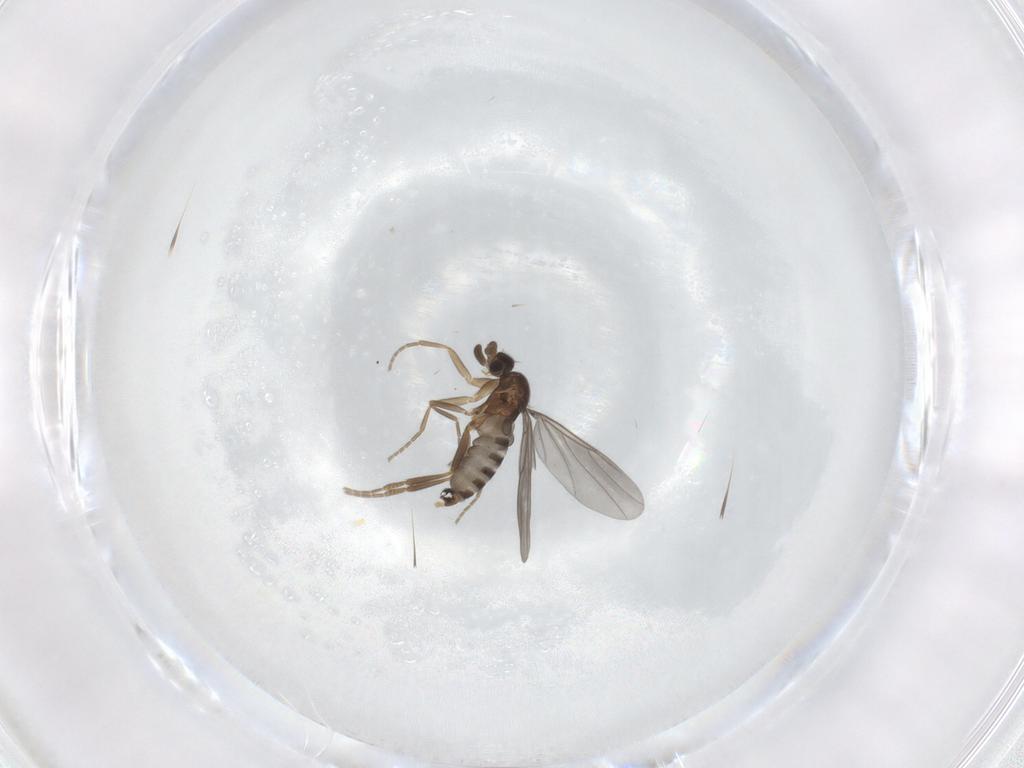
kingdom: Animalia
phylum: Arthropoda
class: Insecta
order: Diptera
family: Cecidomyiidae
